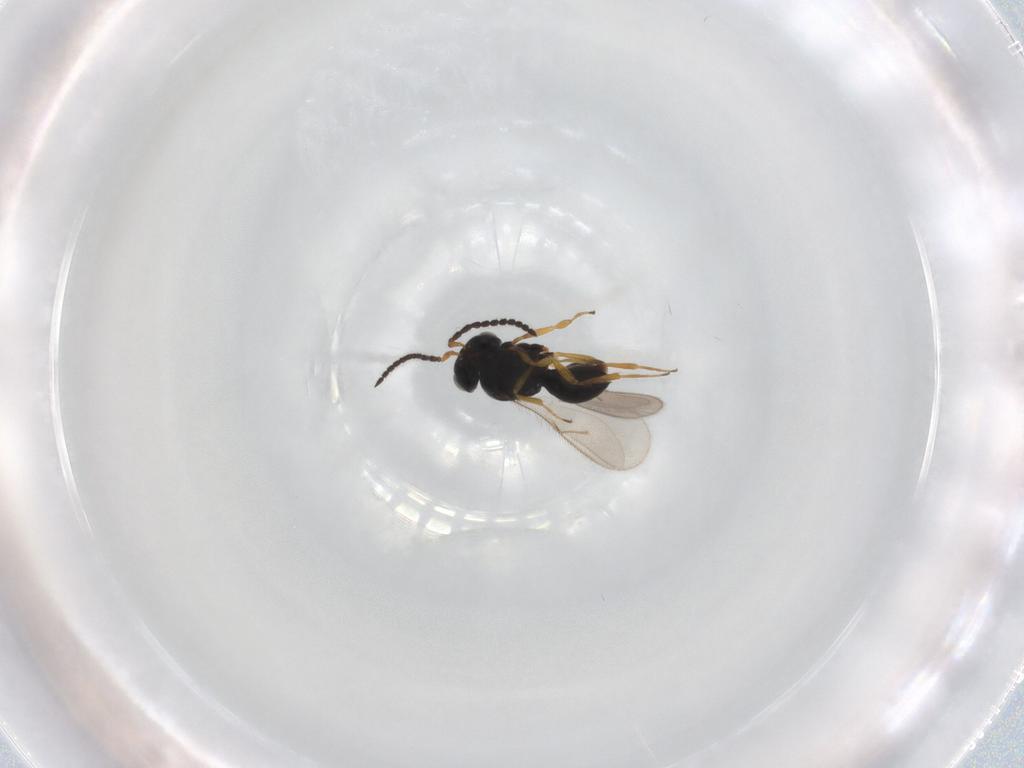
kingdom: Animalia
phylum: Arthropoda
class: Insecta
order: Hymenoptera
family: Scelionidae
